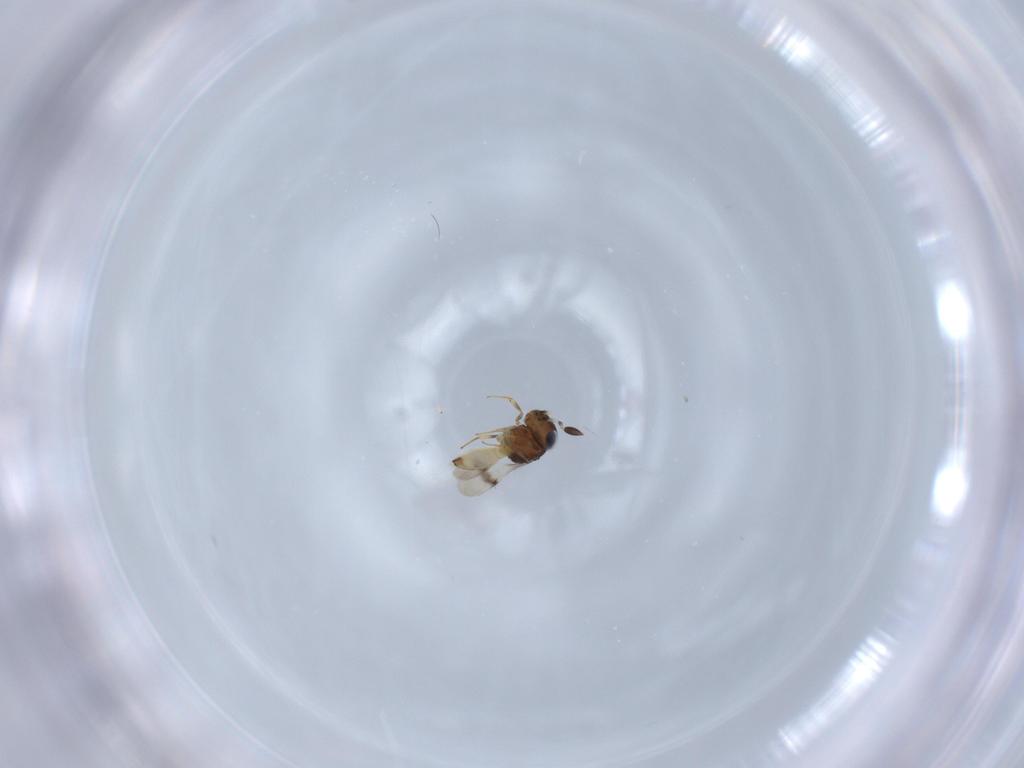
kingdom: Animalia
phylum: Arthropoda
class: Arachnida
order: Araneae
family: Pholcidae
